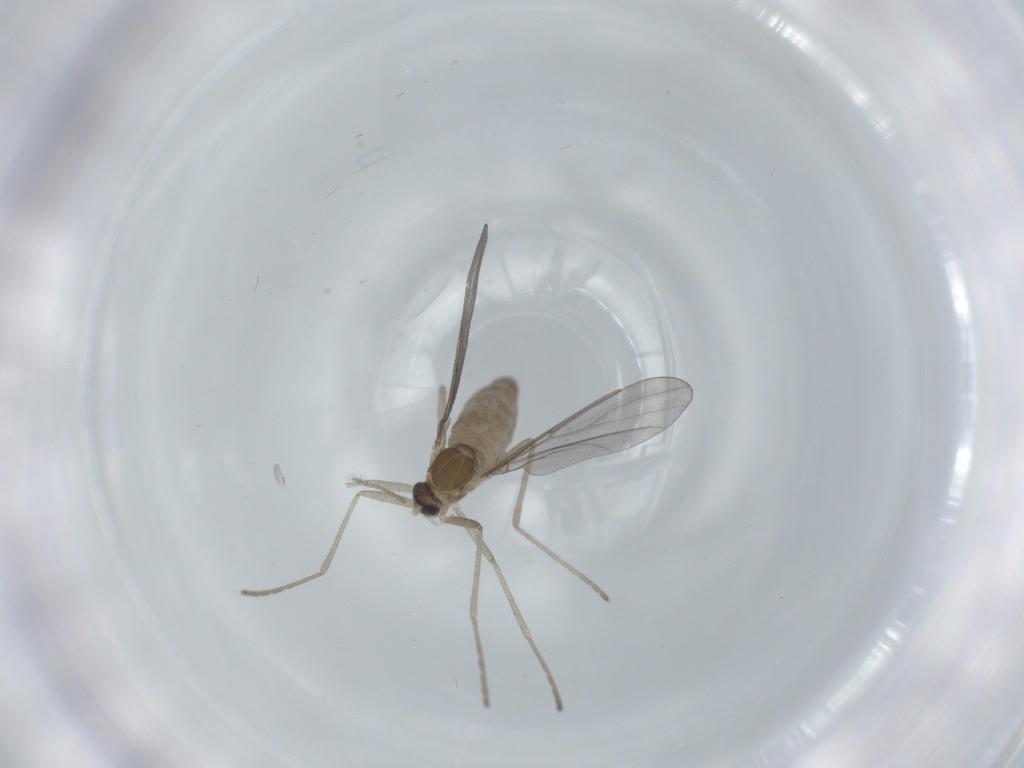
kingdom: Animalia
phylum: Arthropoda
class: Insecta
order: Diptera
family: Cecidomyiidae
